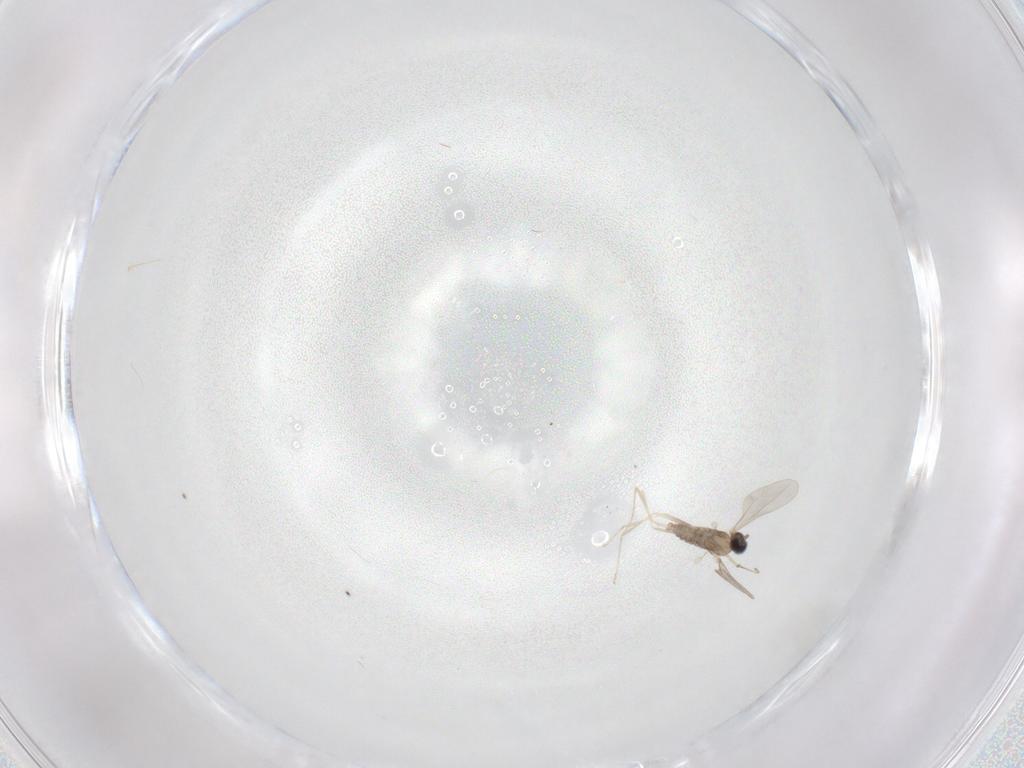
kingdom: Animalia
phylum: Arthropoda
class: Insecta
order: Diptera
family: Cecidomyiidae
